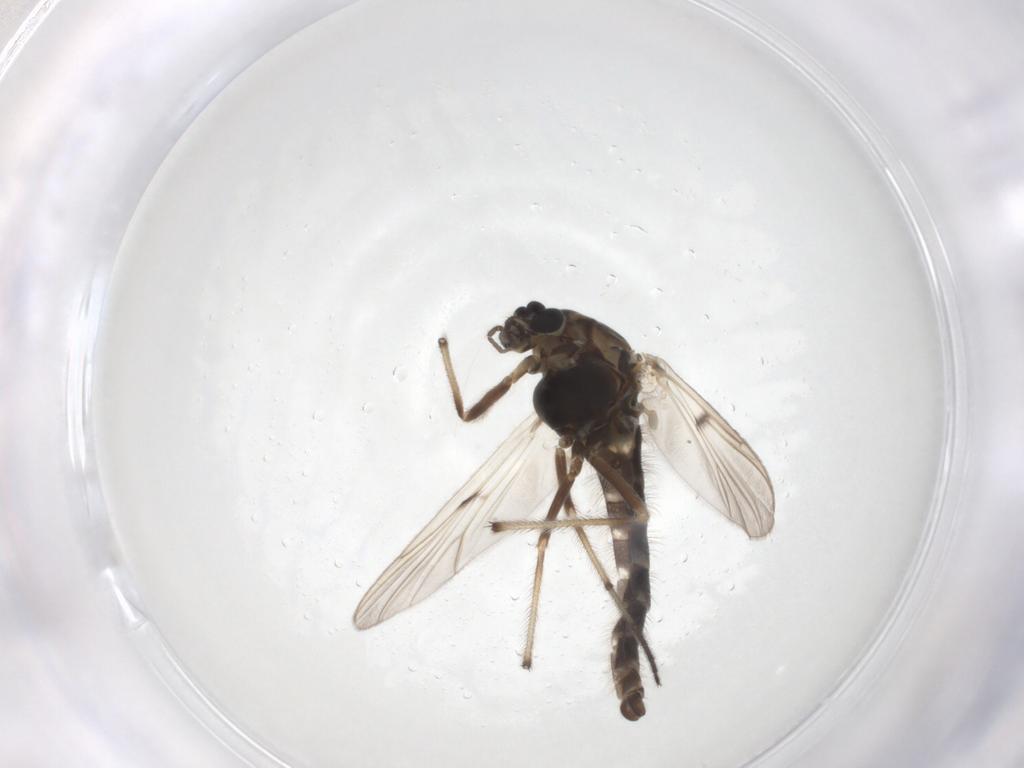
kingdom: Animalia
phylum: Arthropoda
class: Insecta
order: Diptera
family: Chironomidae
